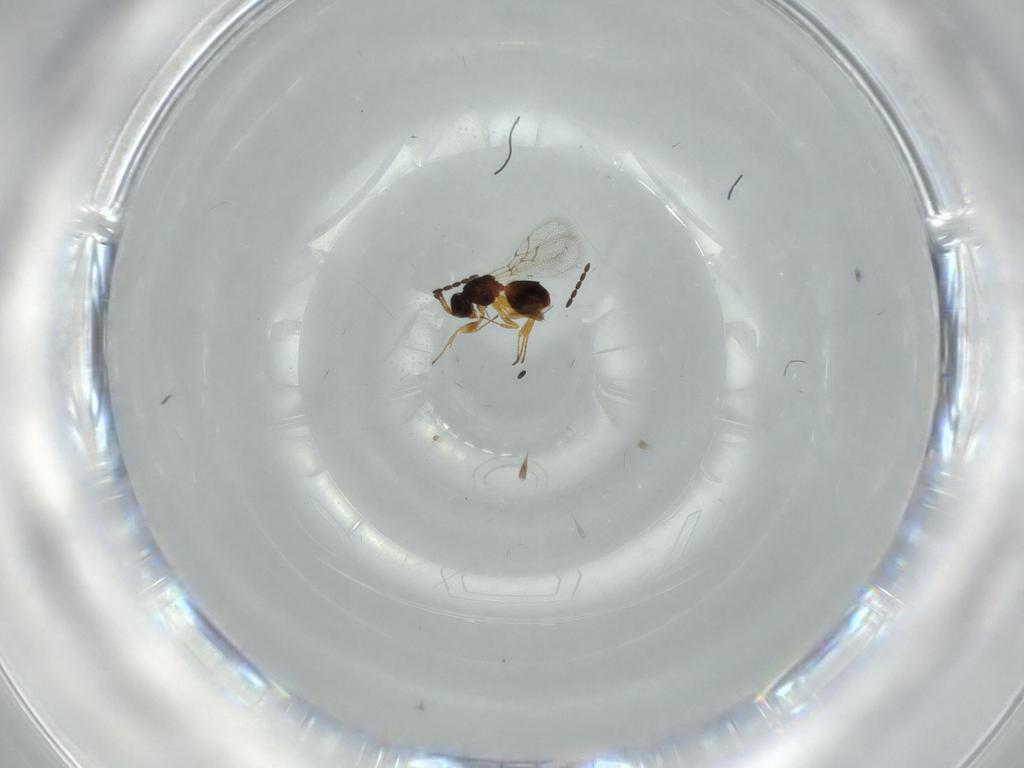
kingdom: Animalia
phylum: Arthropoda
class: Insecta
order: Hymenoptera
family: Figitidae
